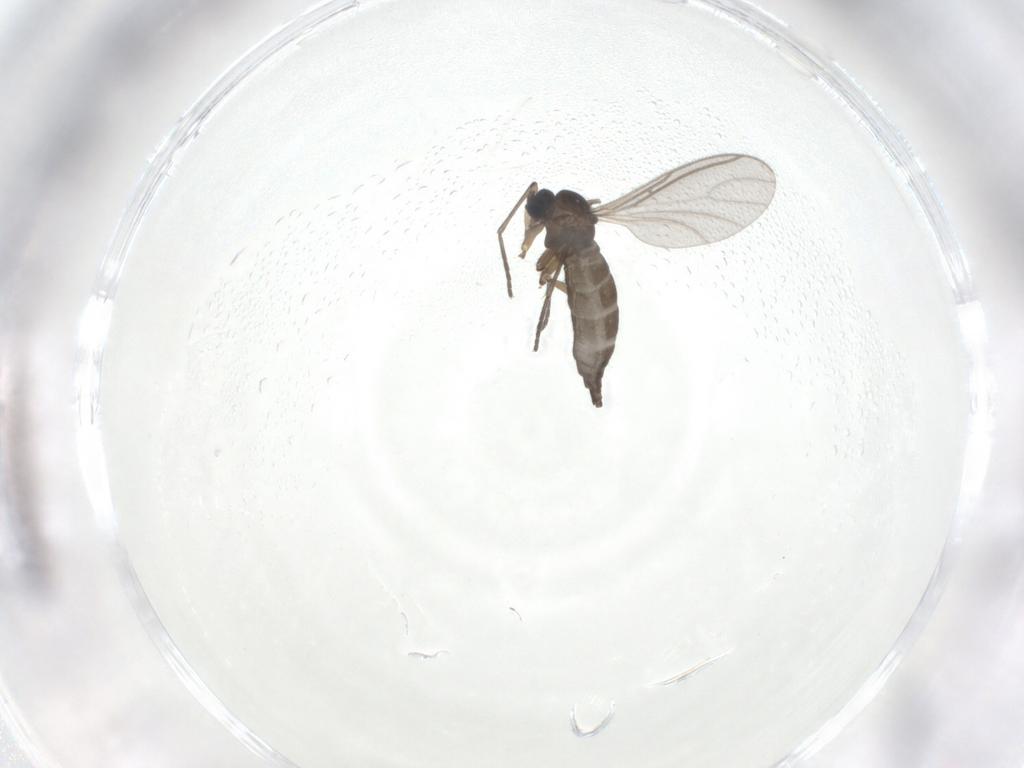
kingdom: Animalia
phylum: Arthropoda
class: Insecta
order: Diptera
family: Cecidomyiidae
